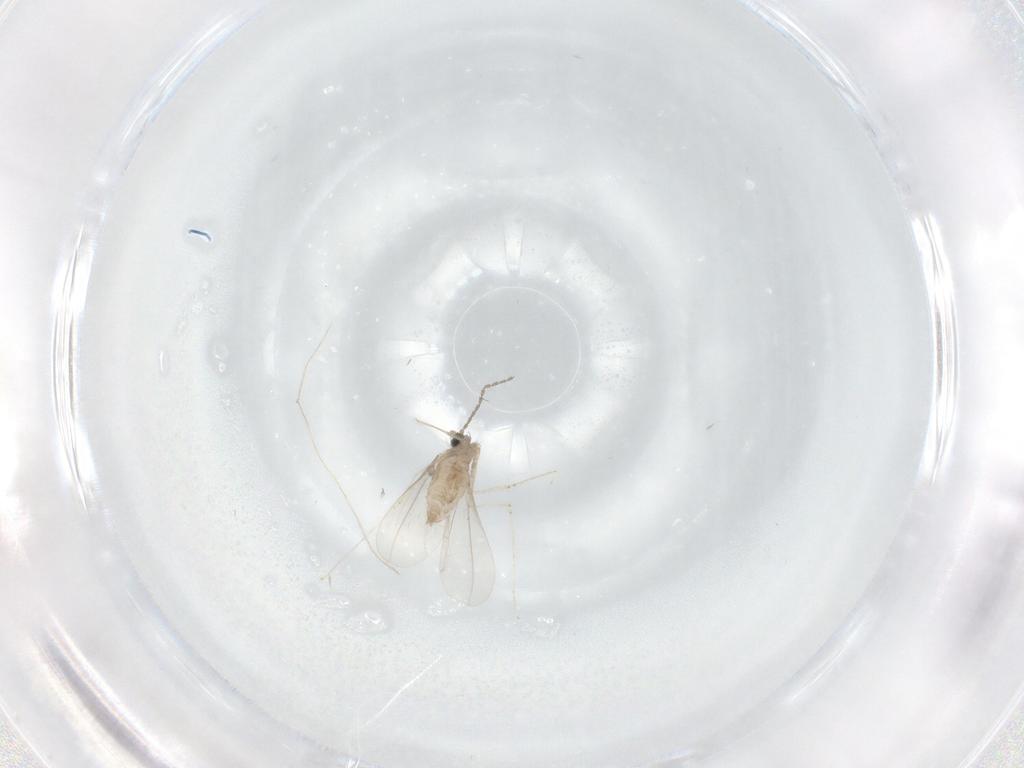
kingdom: Animalia
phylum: Arthropoda
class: Insecta
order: Diptera
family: Cecidomyiidae
